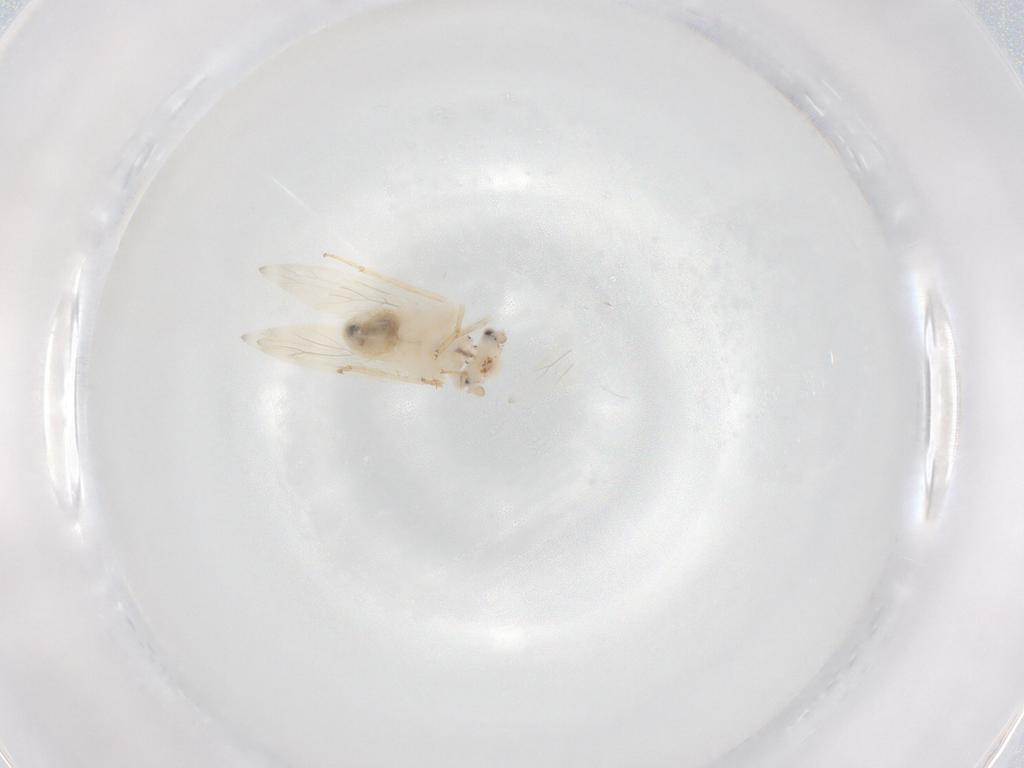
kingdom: Animalia
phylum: Arthropoda
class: Insecta
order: Psocodea
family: Lepidopsocidae
